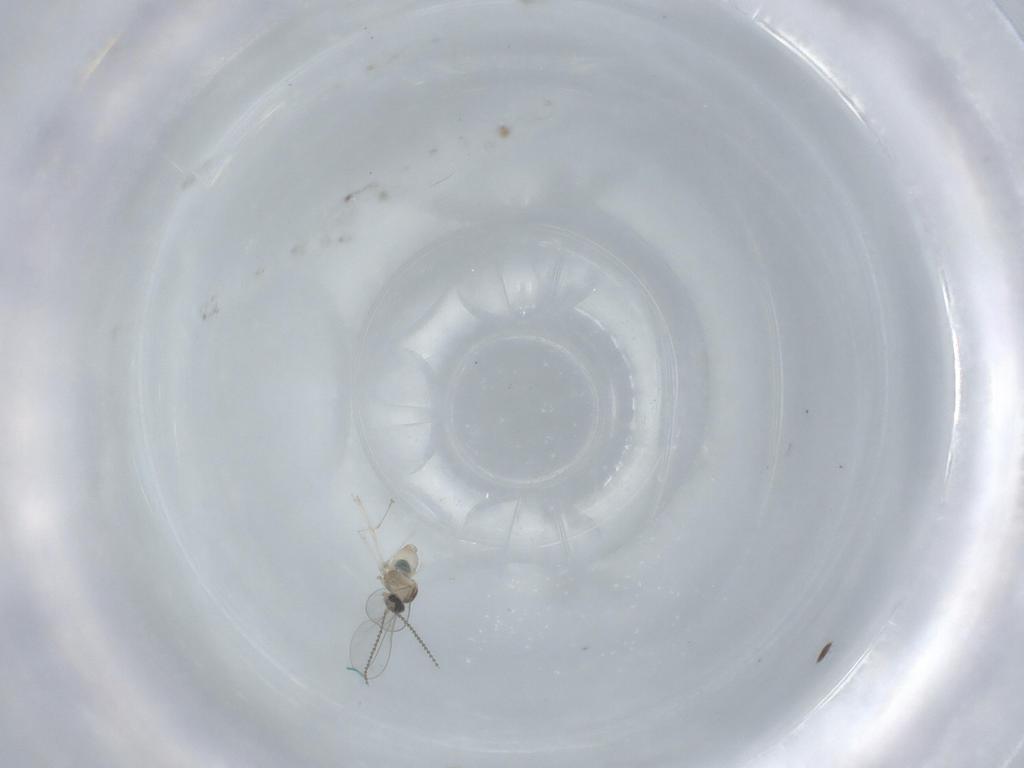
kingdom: Animalia
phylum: Arthropoda
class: Insecta
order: Diptera
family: Cecidomyiidae
